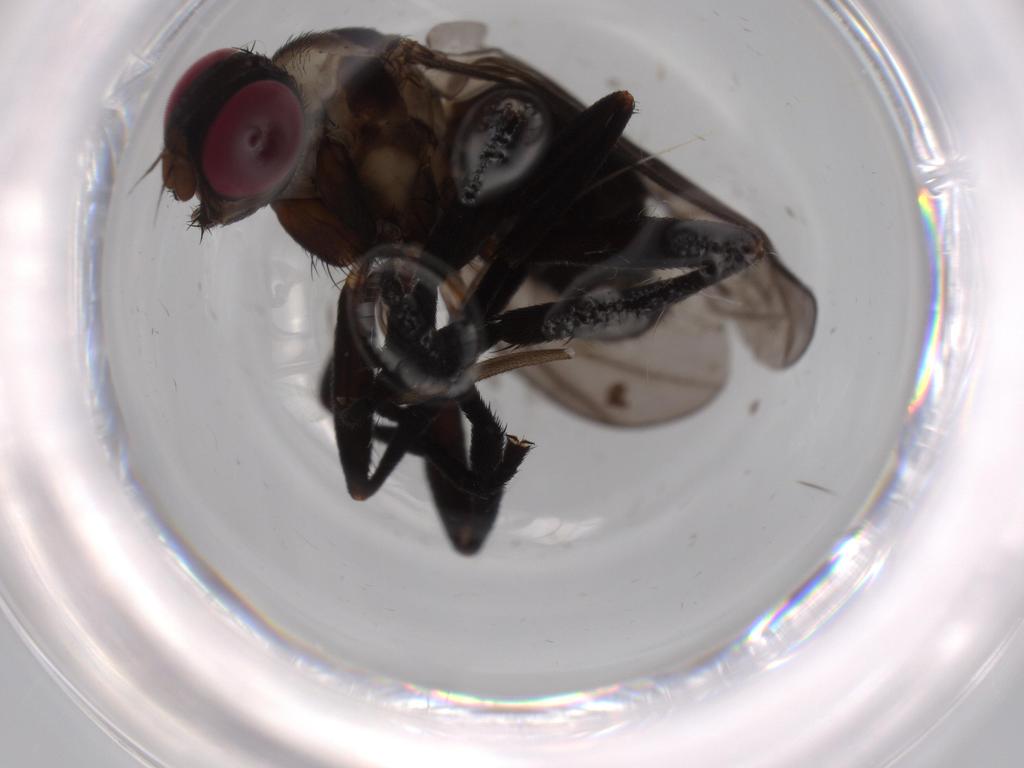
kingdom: Animalia
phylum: Arthropoda
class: Insecta
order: Diptera
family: Calliphoridae
